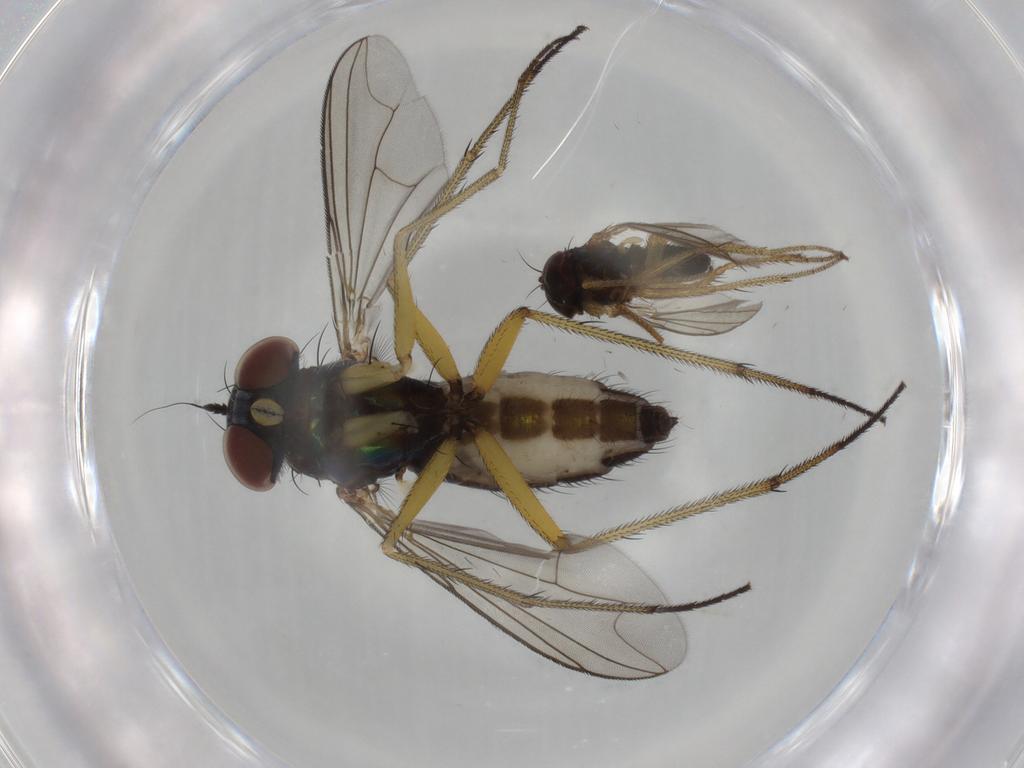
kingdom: Animalia
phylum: Arthropoda
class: Insecta
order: Diptera
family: Dolichopodidae
